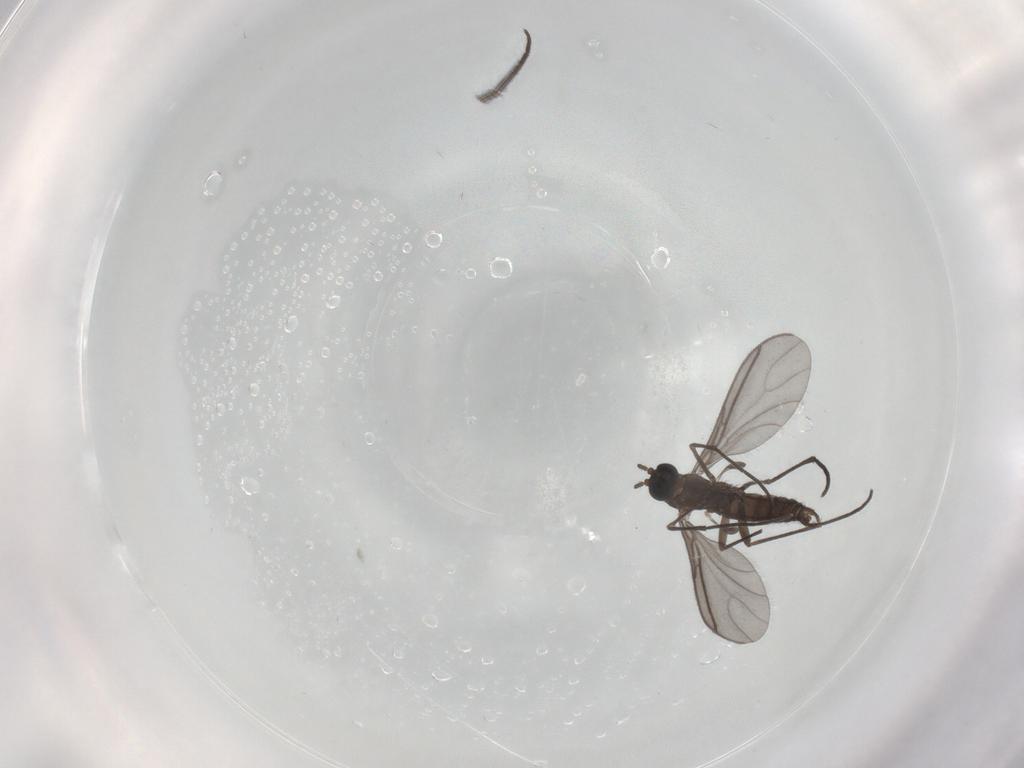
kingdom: Animalia
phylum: Arthropoda
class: Insecta
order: Diptera
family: Sciaridae
